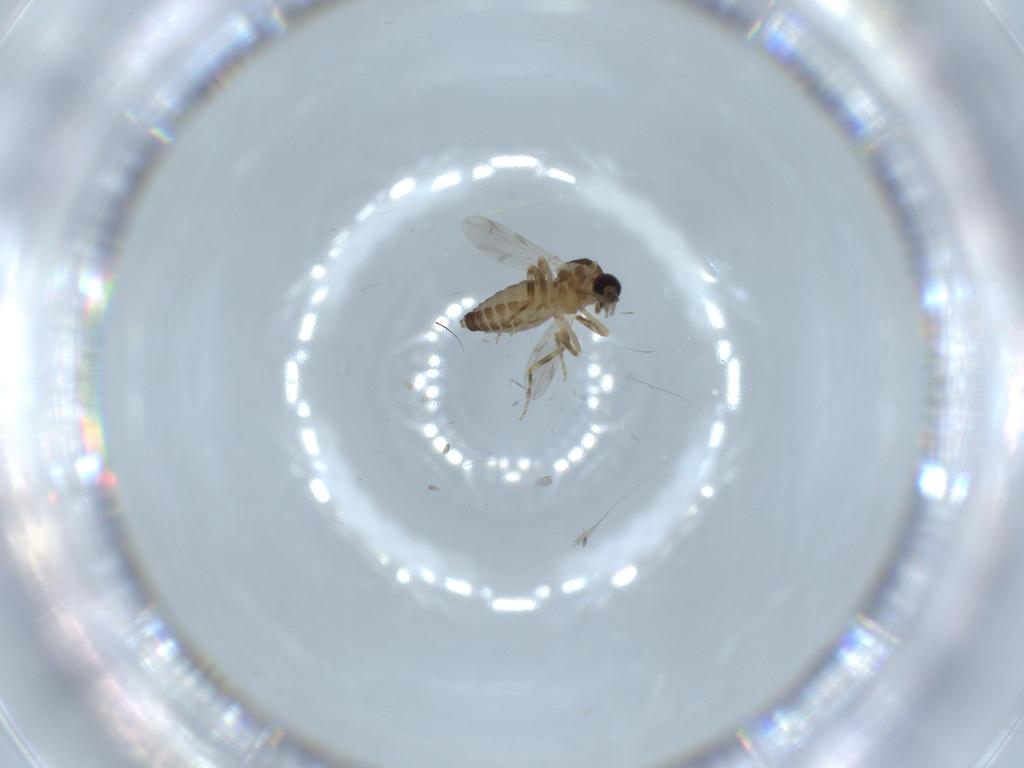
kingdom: Animalia
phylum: Arthropoda
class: Insecta
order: Diptera
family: Ceratopogonidae
